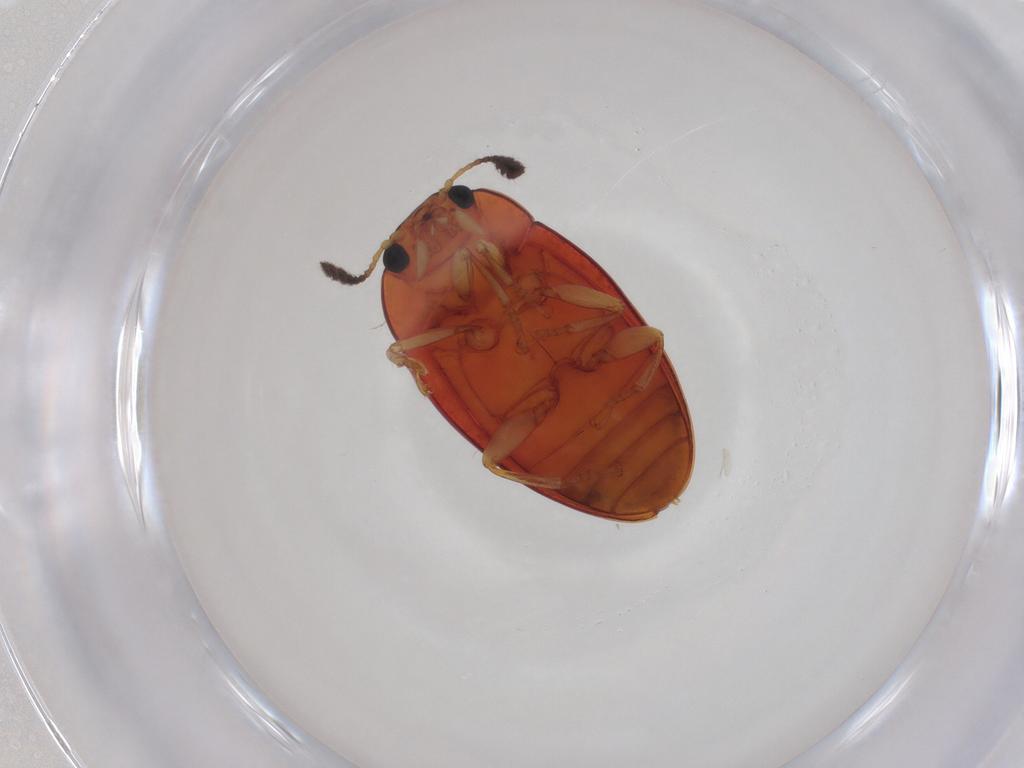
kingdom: Animalia
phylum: Arthropoda
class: Insecta
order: Coleoptera
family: Erotylidae
